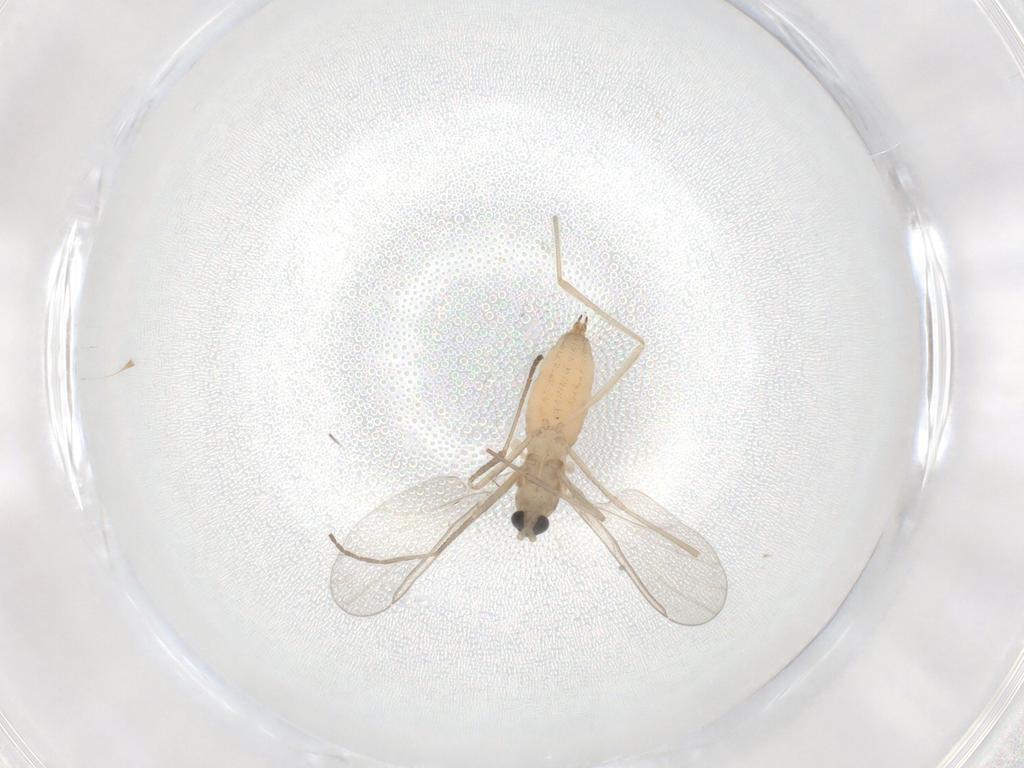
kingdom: Animalia
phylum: Arthropoda
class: Insecta
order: Diptera
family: Cecidomyiidae
